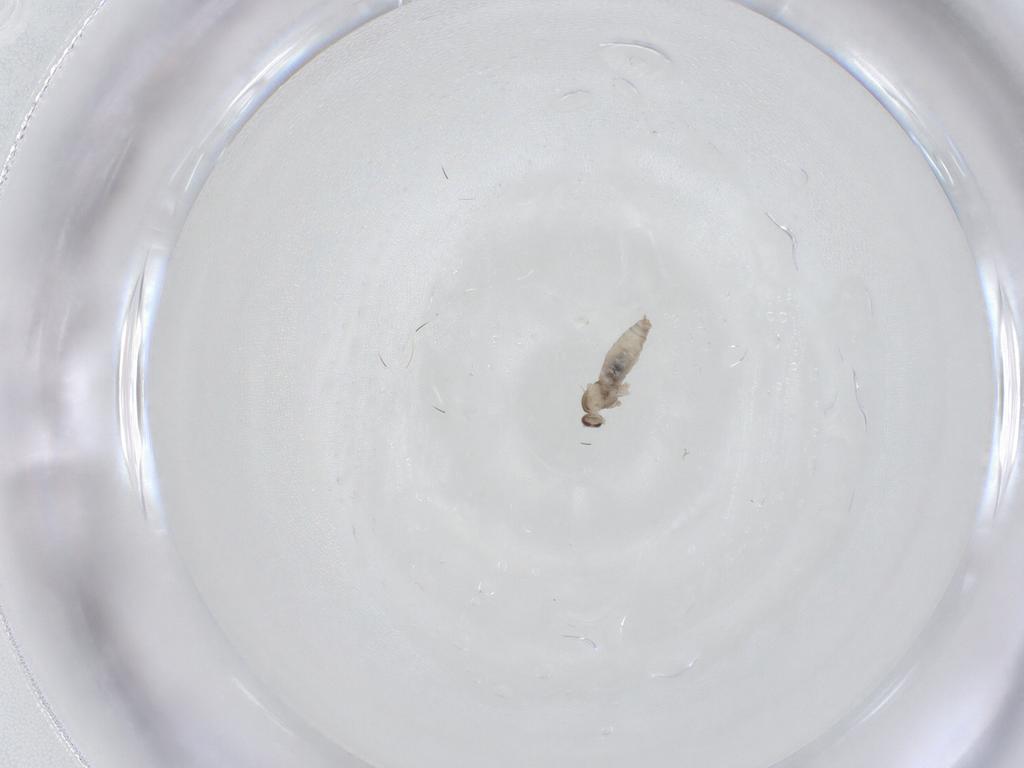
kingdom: Animalia
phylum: Arthropoda
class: Insecta
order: Diptera
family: Cecidomyiidae
